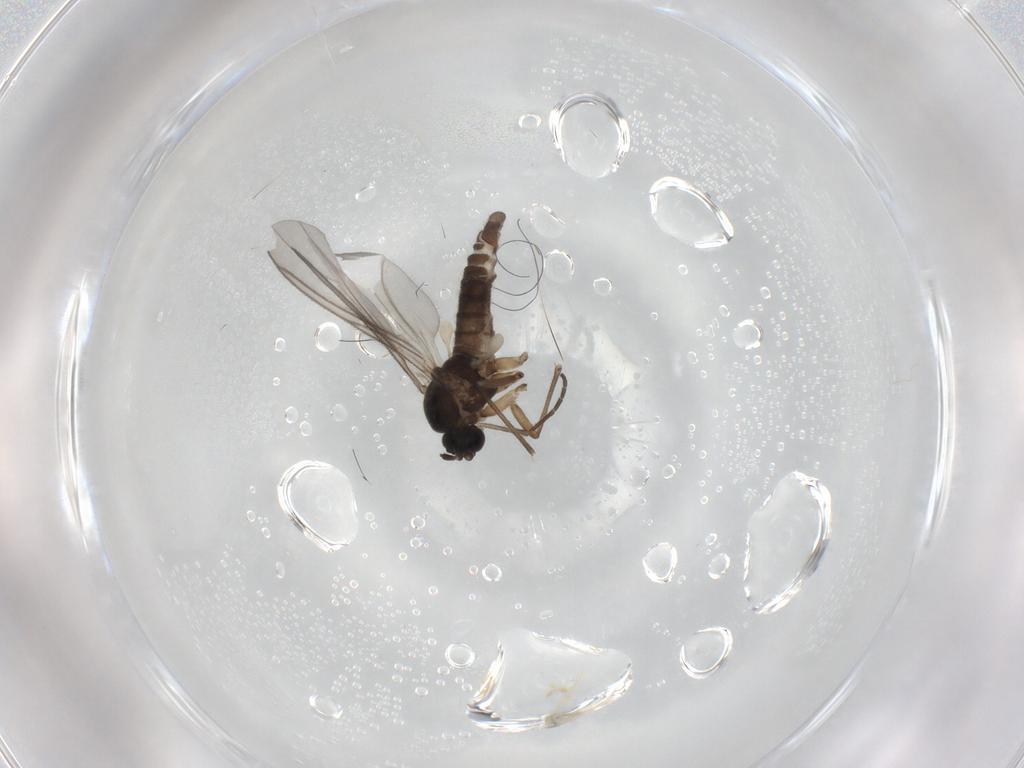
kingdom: Animalia
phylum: Arthropoda
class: Insecta
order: Diptera
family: Sciaridae
